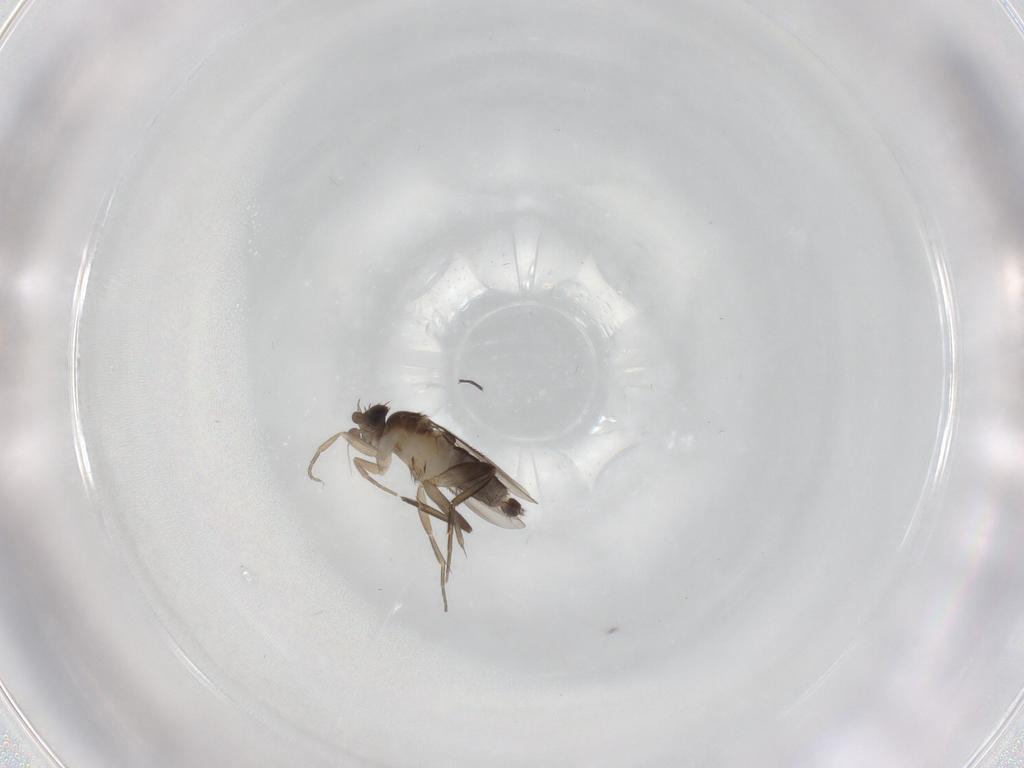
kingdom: Animalia
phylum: Arthropoda
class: Insecta
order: Diptera
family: Phoridae
